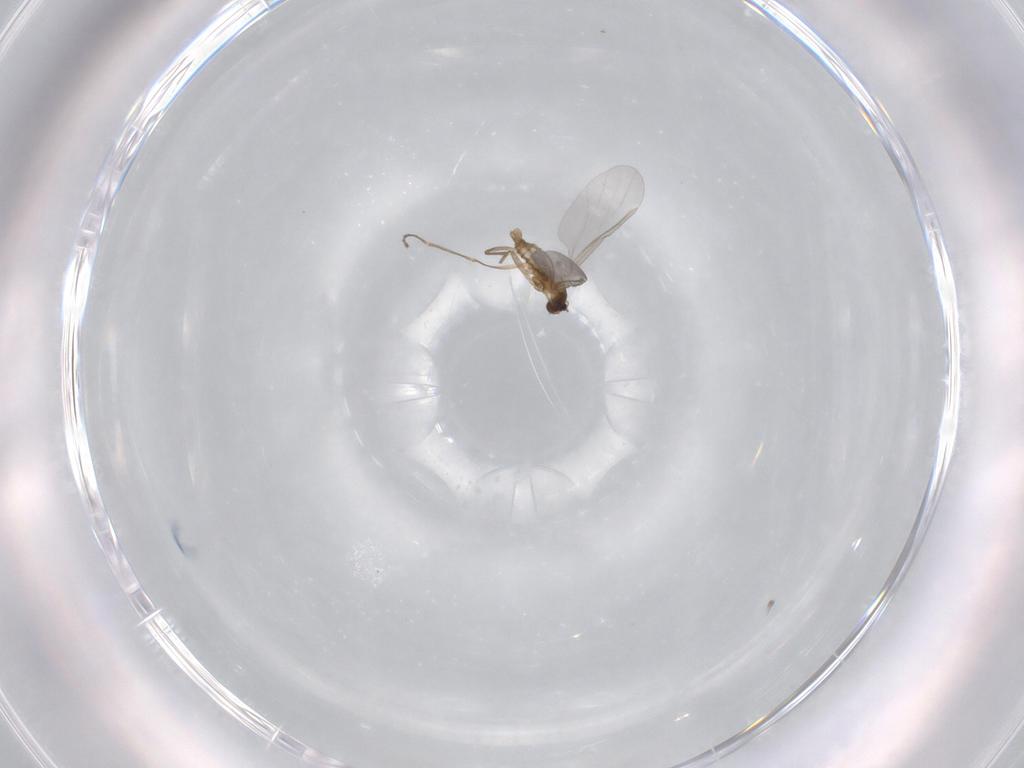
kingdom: Animalia
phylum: Arthropoda
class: Insecta
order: Diptera
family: Cecidomyiidae
